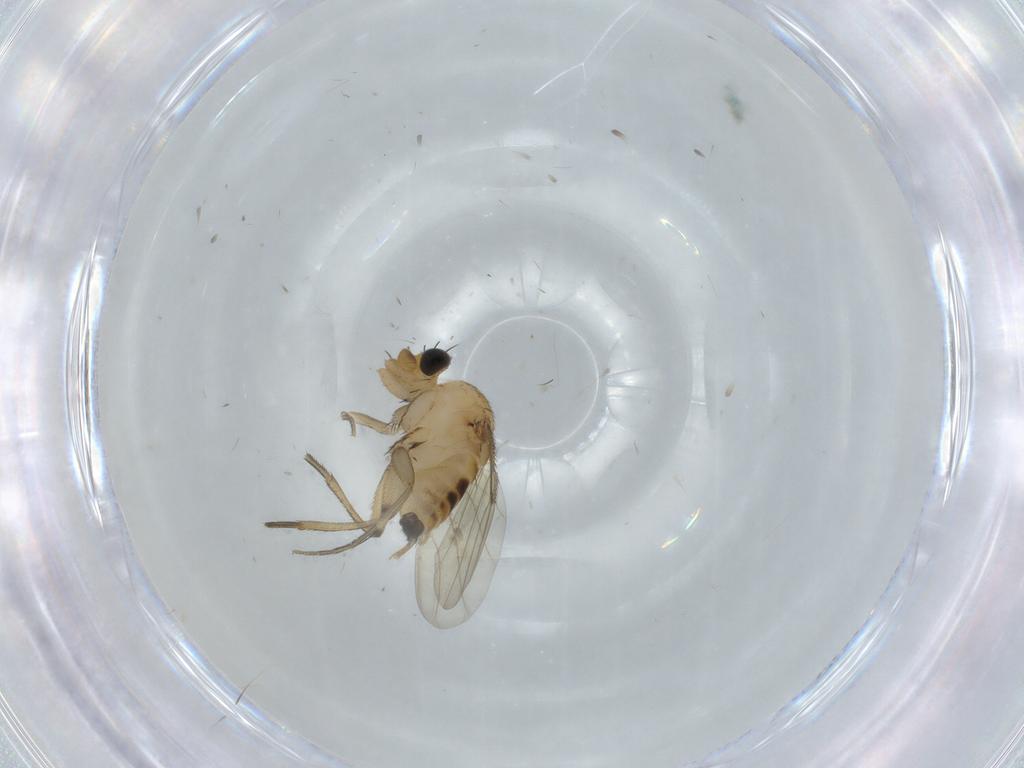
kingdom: Animalia
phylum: Arthropoda
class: Insecta
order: Diptera
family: Phoridae
